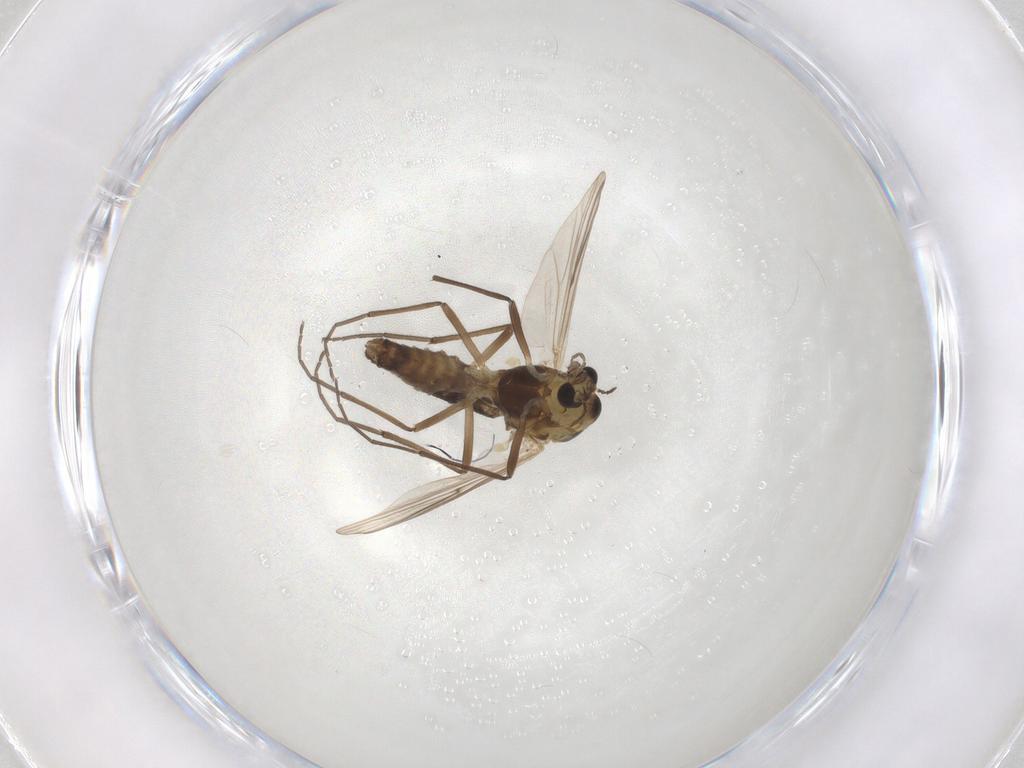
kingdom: Animalia
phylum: Arthropoda
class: Insecta
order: Diptera
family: Chironomidae
